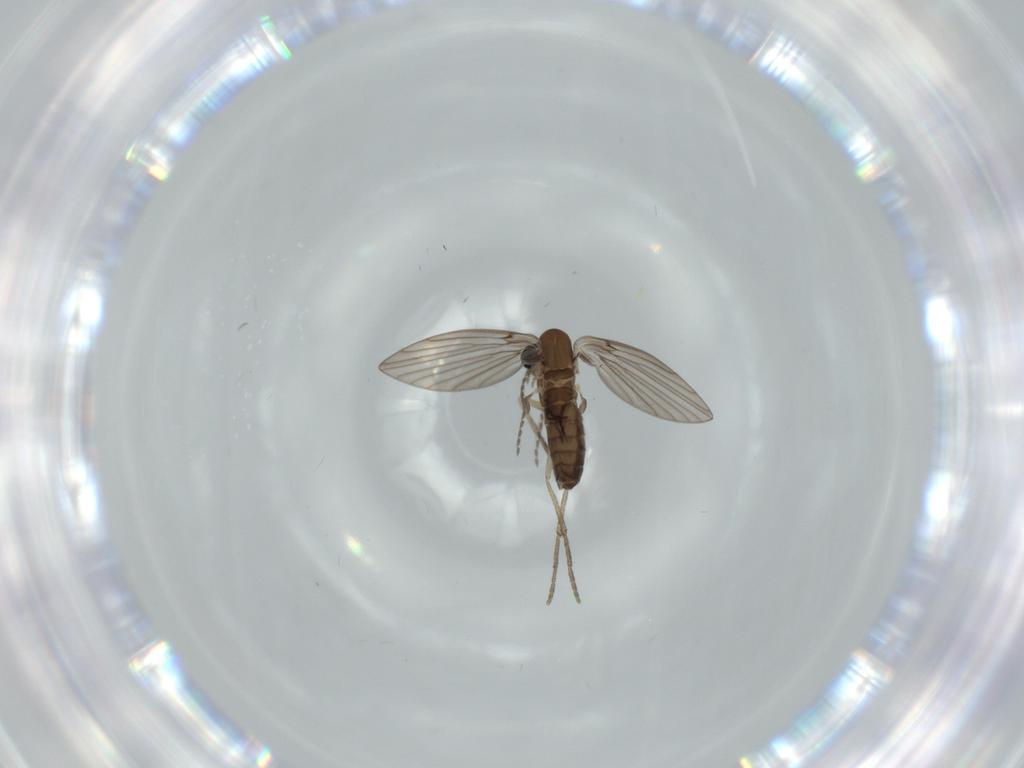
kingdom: Animalia
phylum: Arthropoda
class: Insecta
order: Diptera
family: Psychodidae
